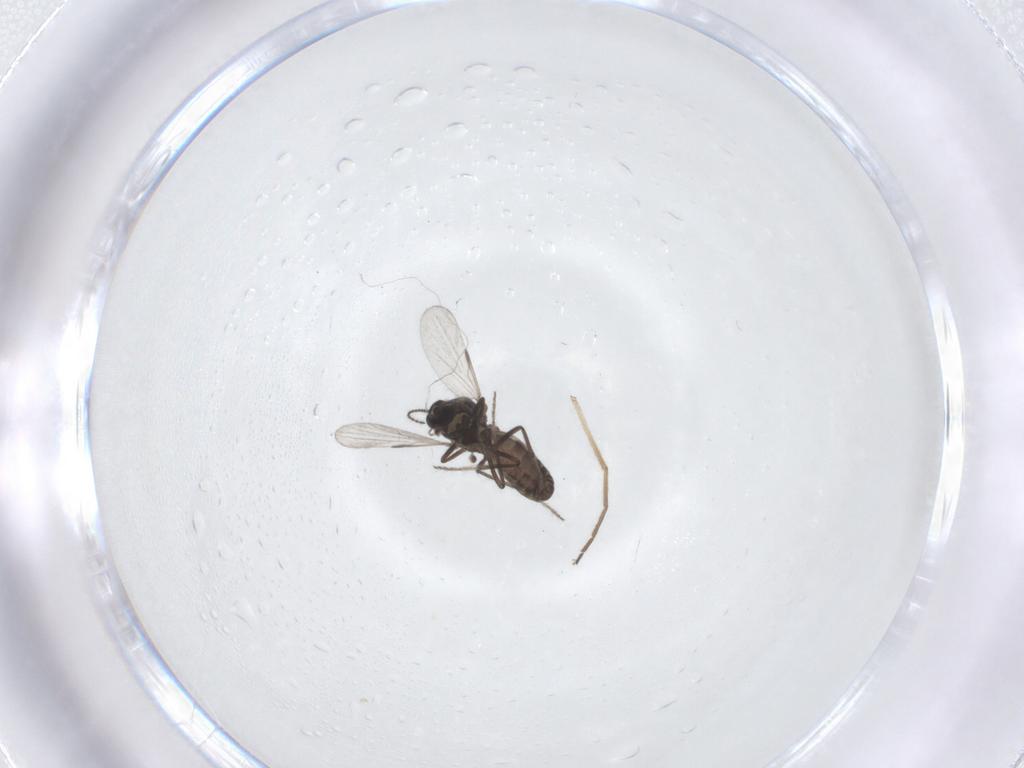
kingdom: Animalia
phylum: Arthropoda
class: Insecta
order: Diptera
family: Ceratopogonidae
